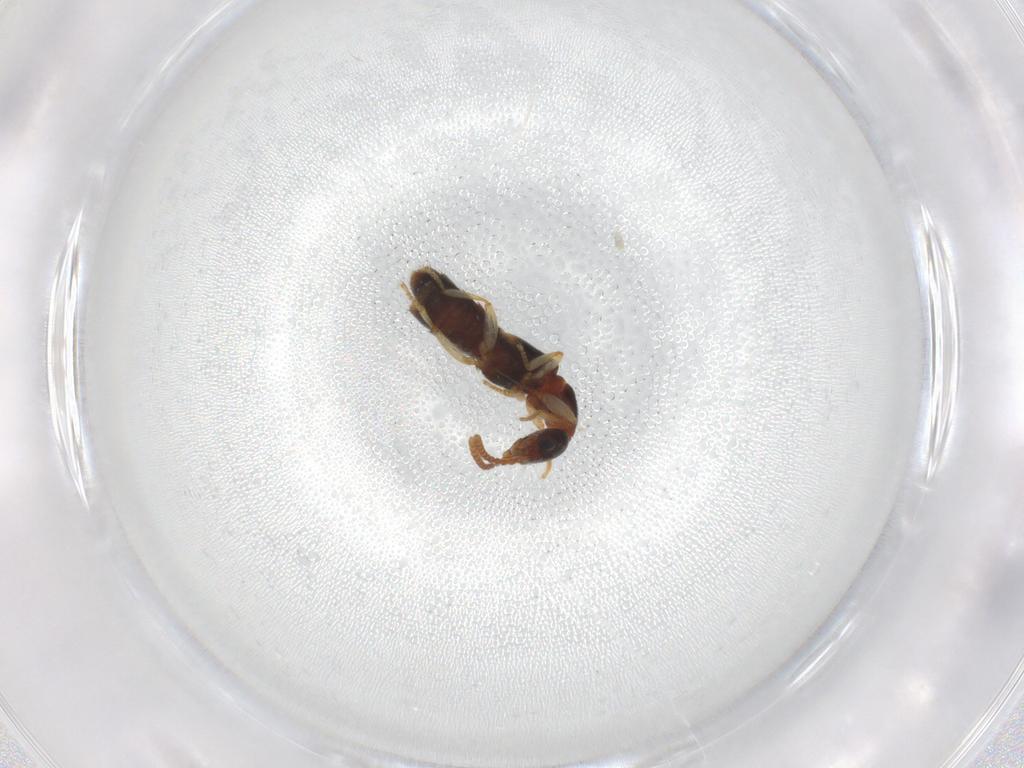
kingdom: Animalia
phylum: Arthropoda
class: Insecta
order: Coleoptera
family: Staphylinidae
